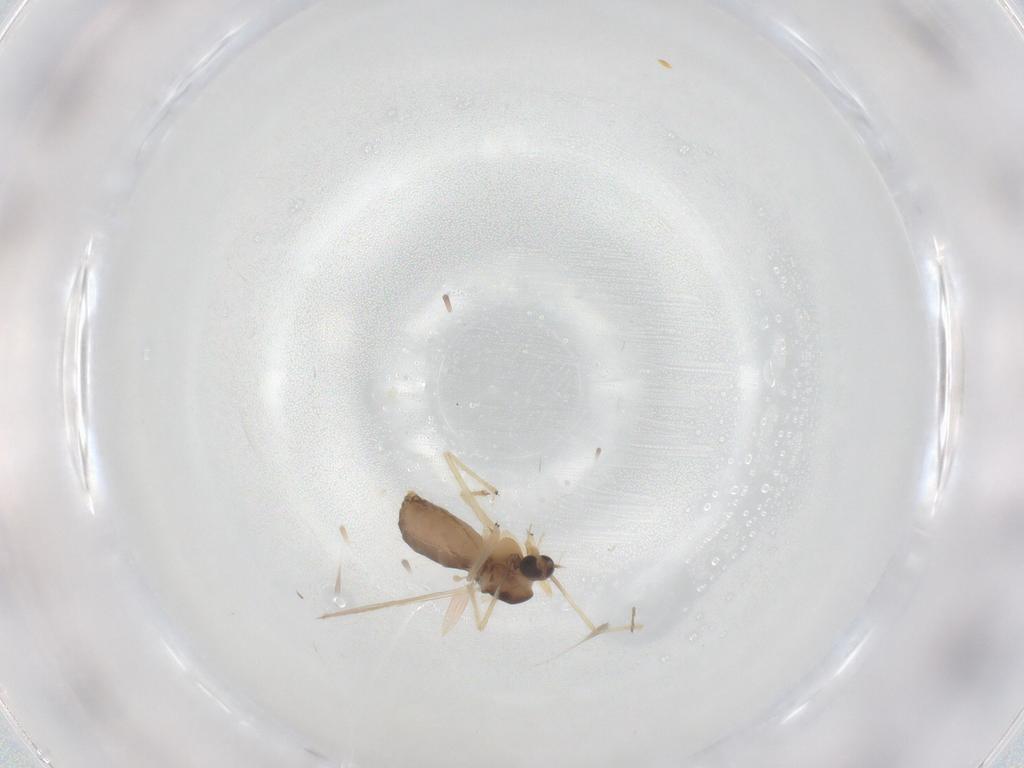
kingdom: Animalia
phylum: Arthropoda
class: Insecta
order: Diptera
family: Chironomidae
